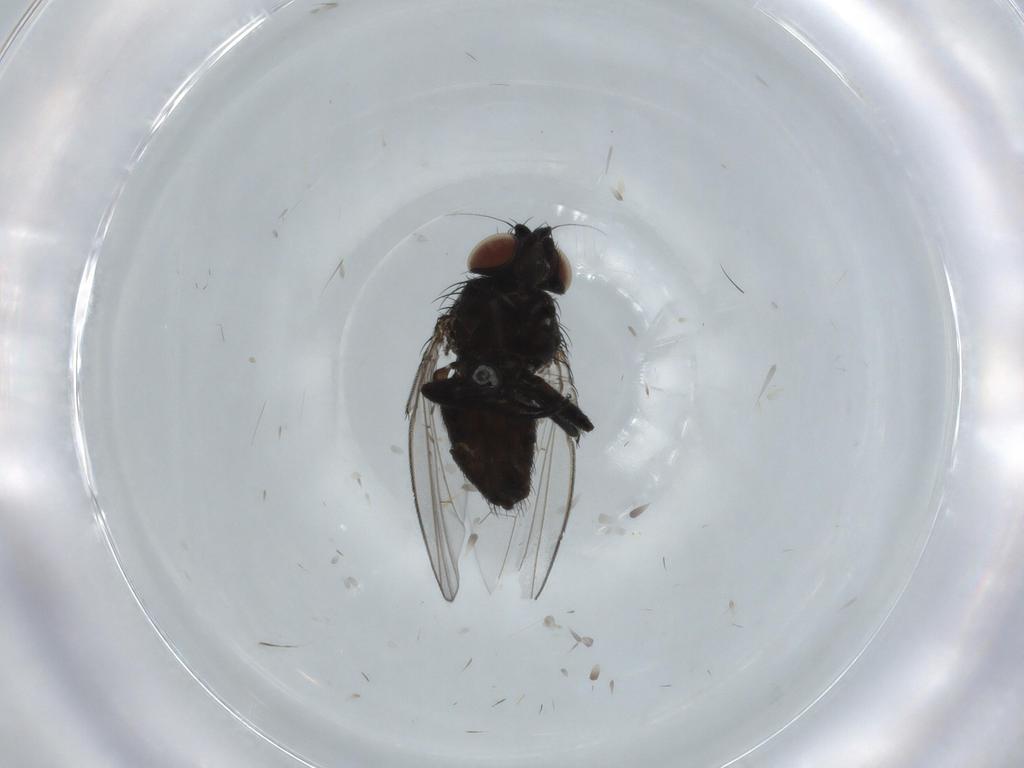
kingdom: Animalia
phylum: Arthropoda
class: Insecta
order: Diptera
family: Milichiidae
